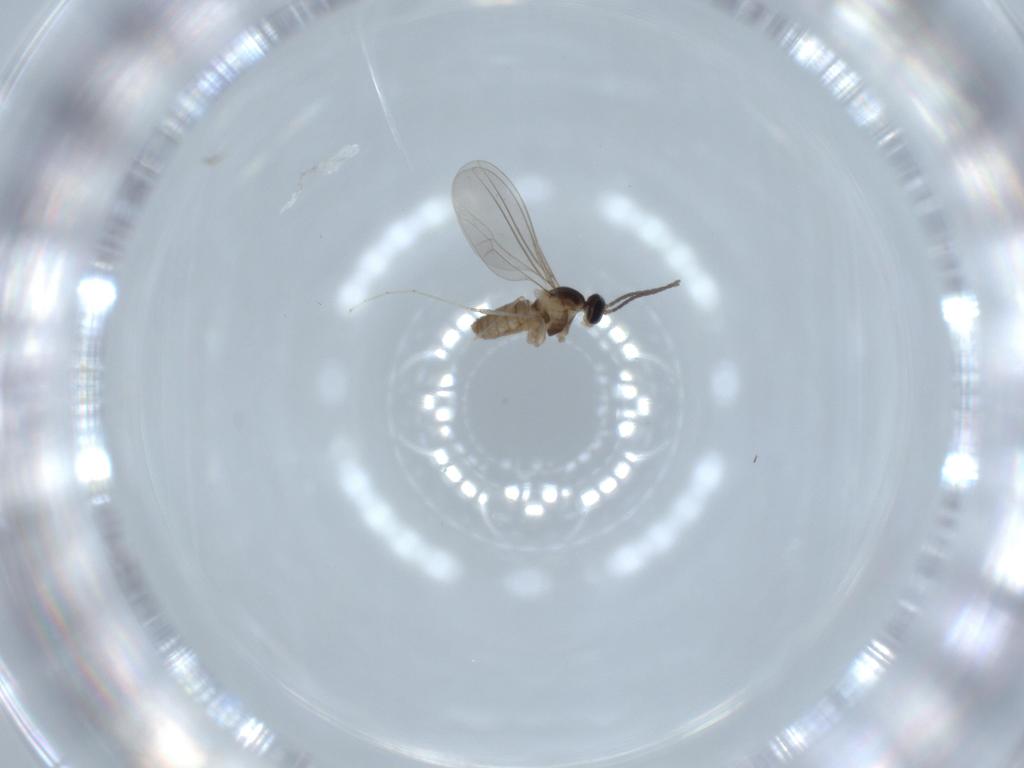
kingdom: Animalia
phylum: Arthropoda
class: Insecta
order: Diptera
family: Cecidomyiidae
